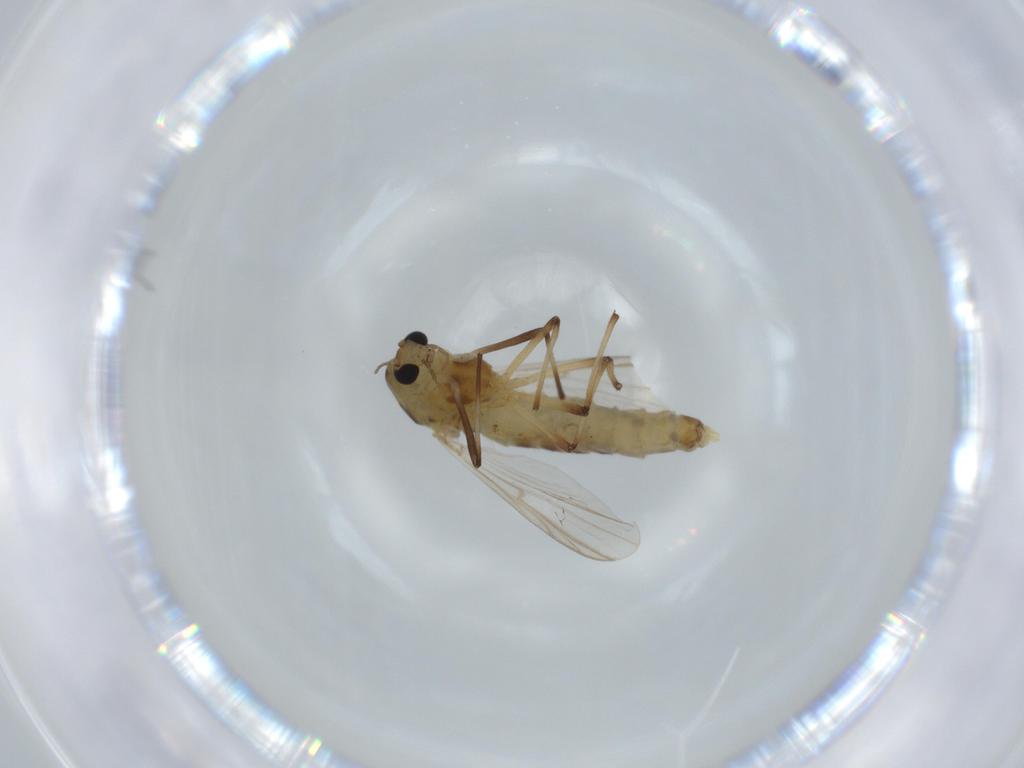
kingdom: Animalia
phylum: Arthropoda
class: Insecta
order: Diptera
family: Chironomidae
